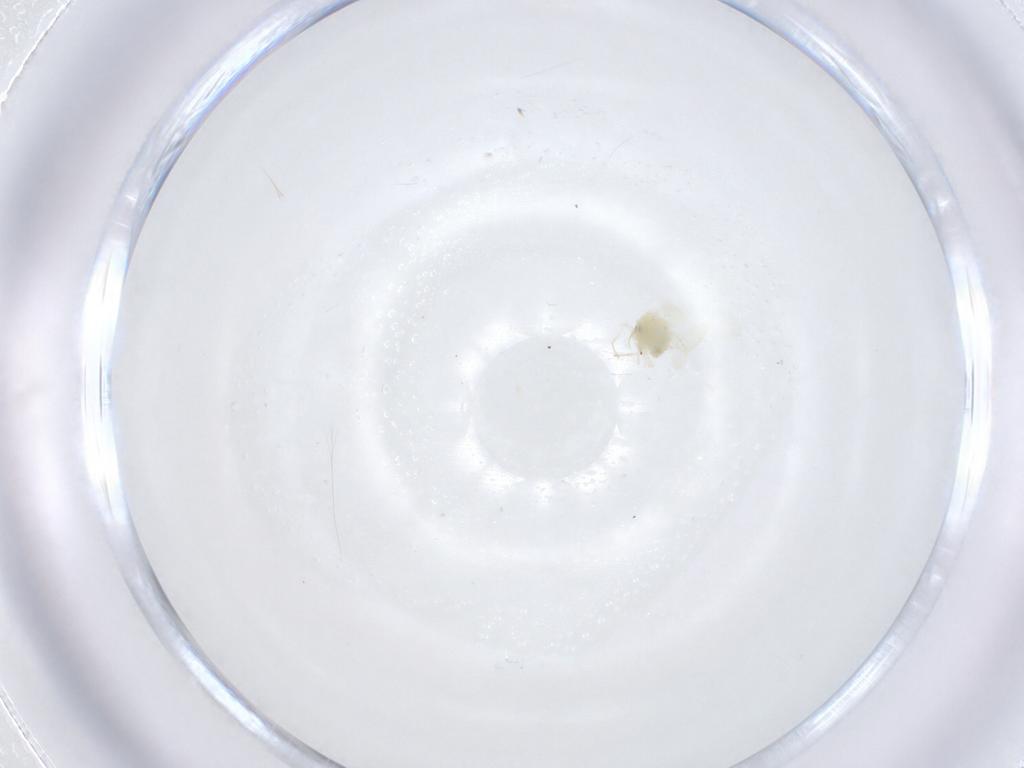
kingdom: Animalia
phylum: Arthropoda
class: Insecta
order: Hemiptera
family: Aleyrodidae
